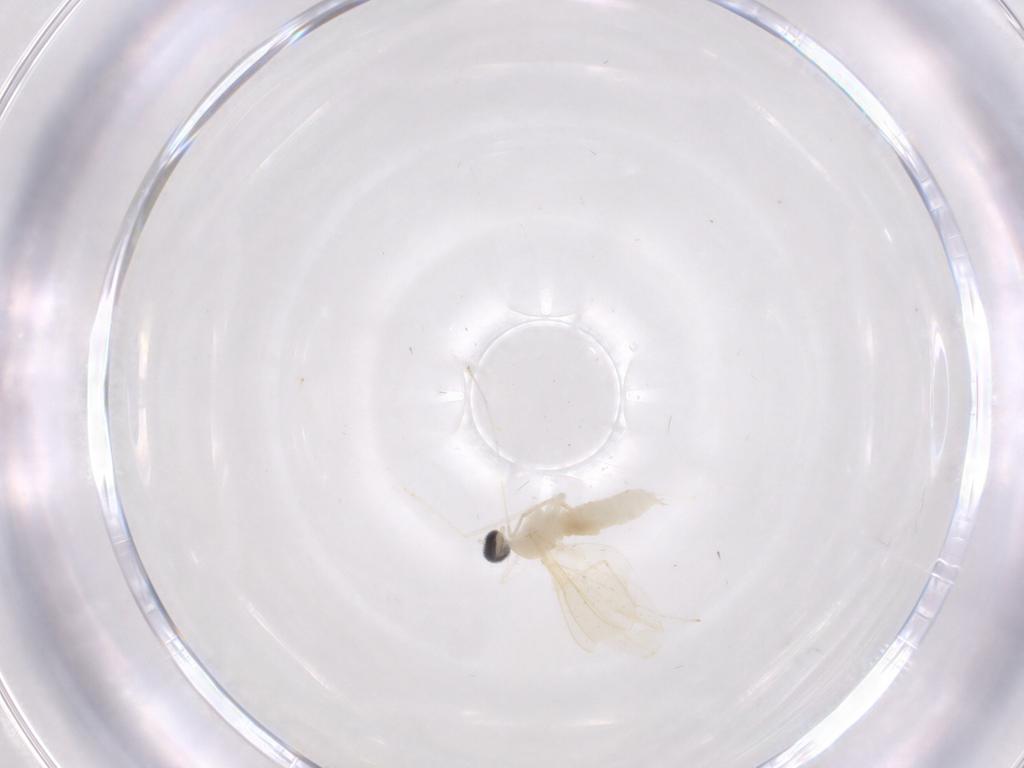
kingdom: Animalia
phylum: Arthropoda
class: Insecta
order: Diptera
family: Cecidomyiidae
